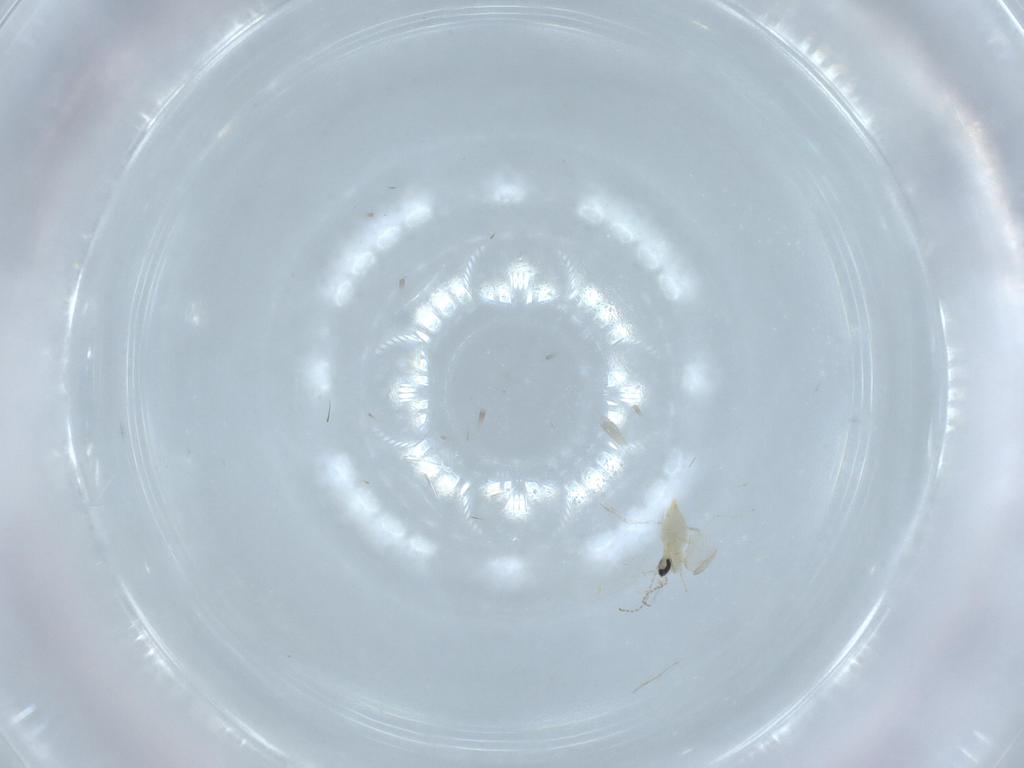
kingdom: Animalia
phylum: Arthropoda
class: Insecta
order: Diptera
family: Cecidomyiidae
